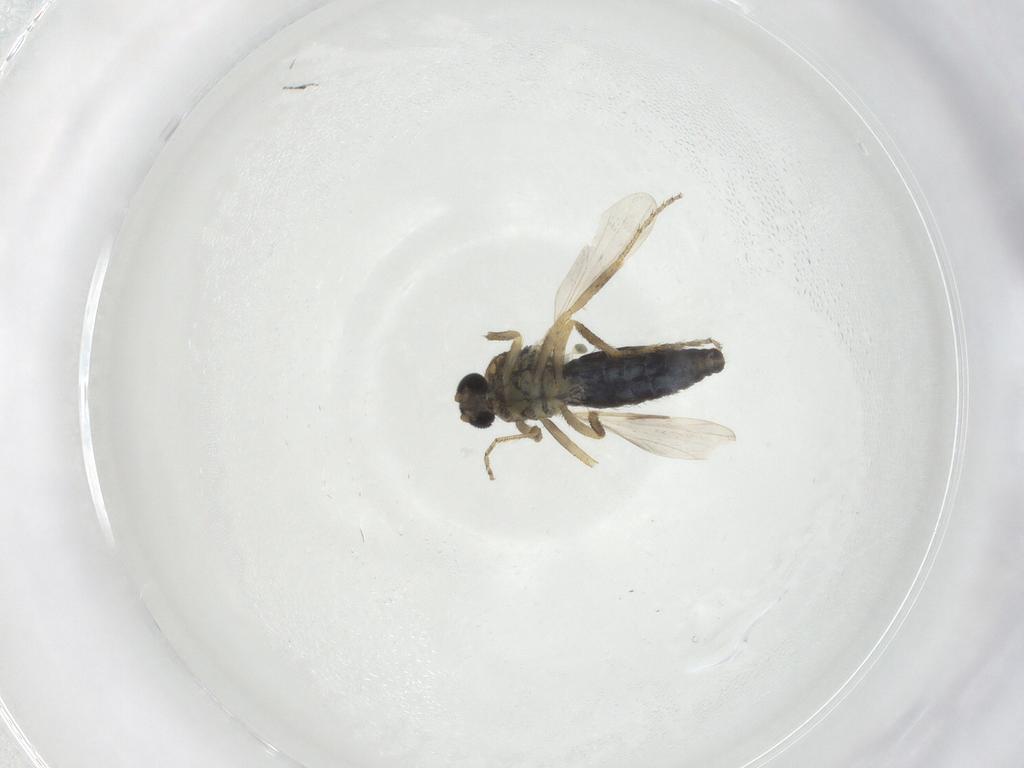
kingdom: Animalia
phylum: Arthropoda
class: Insecta
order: Diptera
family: Ceratopogonidae
